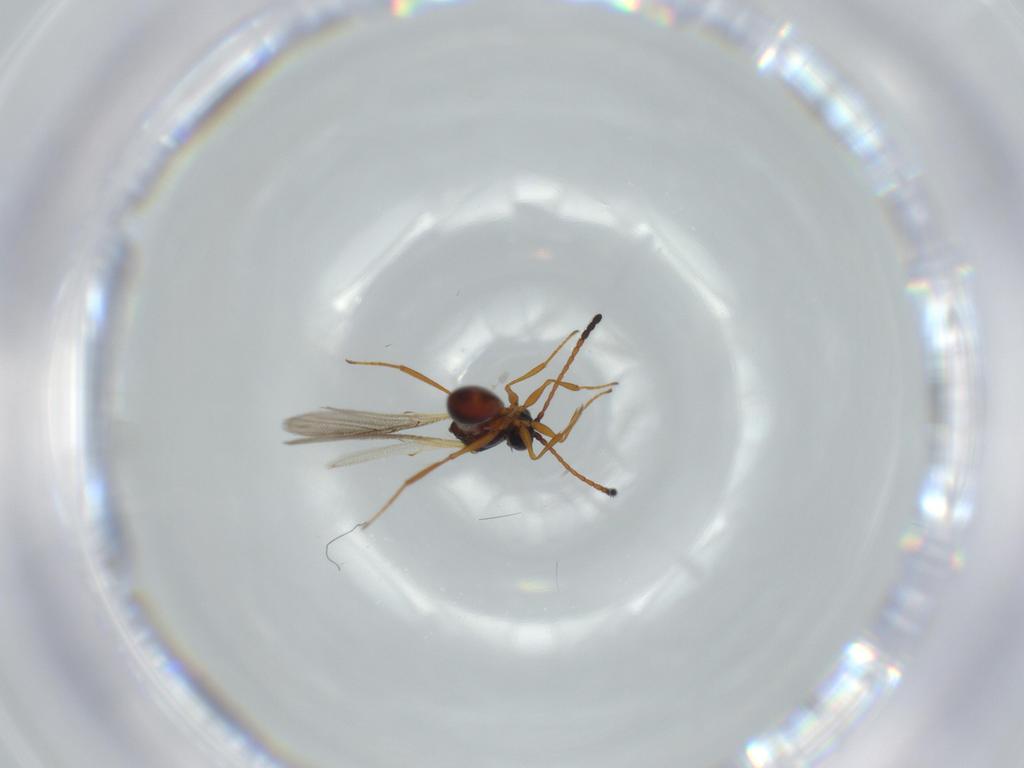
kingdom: Animalia
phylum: Arthropoda
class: Insecta
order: Hymenoptera
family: Figitidae
